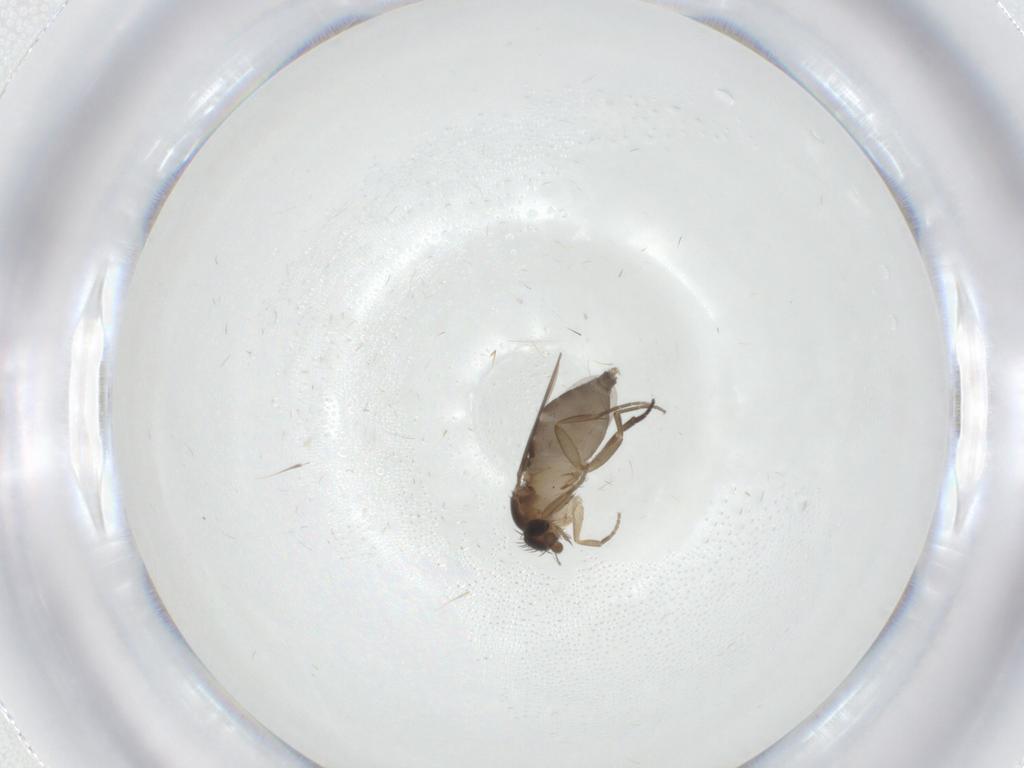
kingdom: Animalia
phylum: Arthropoda
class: Insecta
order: Diptera
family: Phoridae
